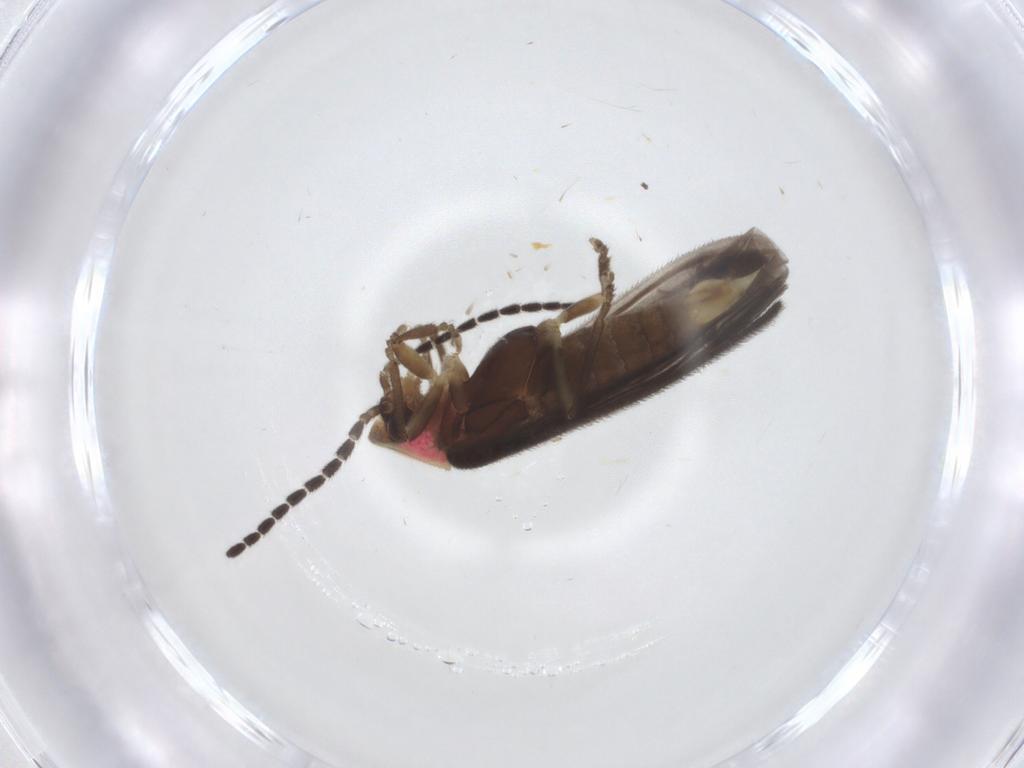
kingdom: Animalia
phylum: Arthropoda
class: Insecta
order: Coleoptera
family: Lampyridae
